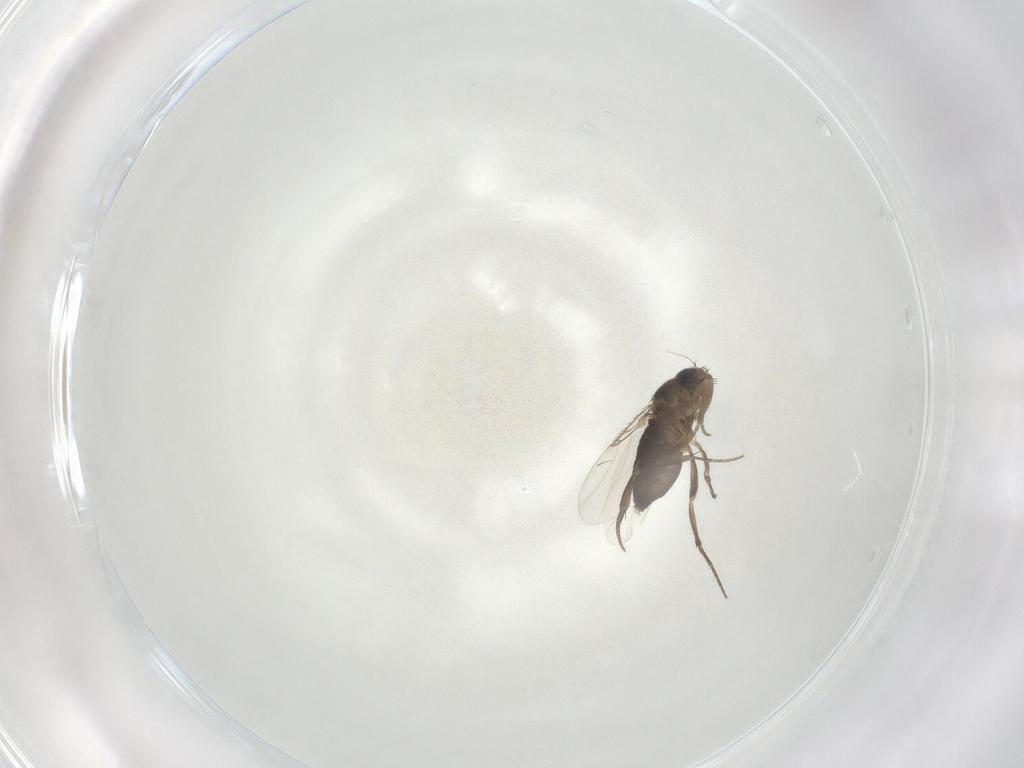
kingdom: Animalia
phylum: Arthropoda
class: Insecta
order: Diptera
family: Phoridae
